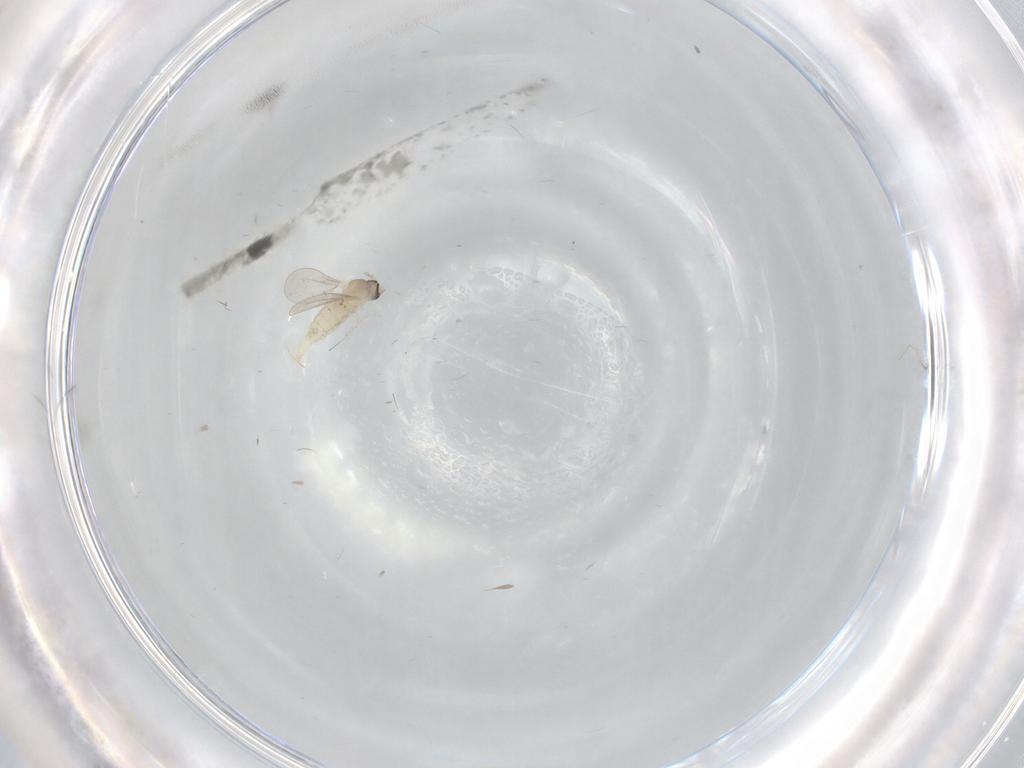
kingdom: Animalia
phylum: Arthropoda
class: Insecta
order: Diptera
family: Cecidomyiidae
